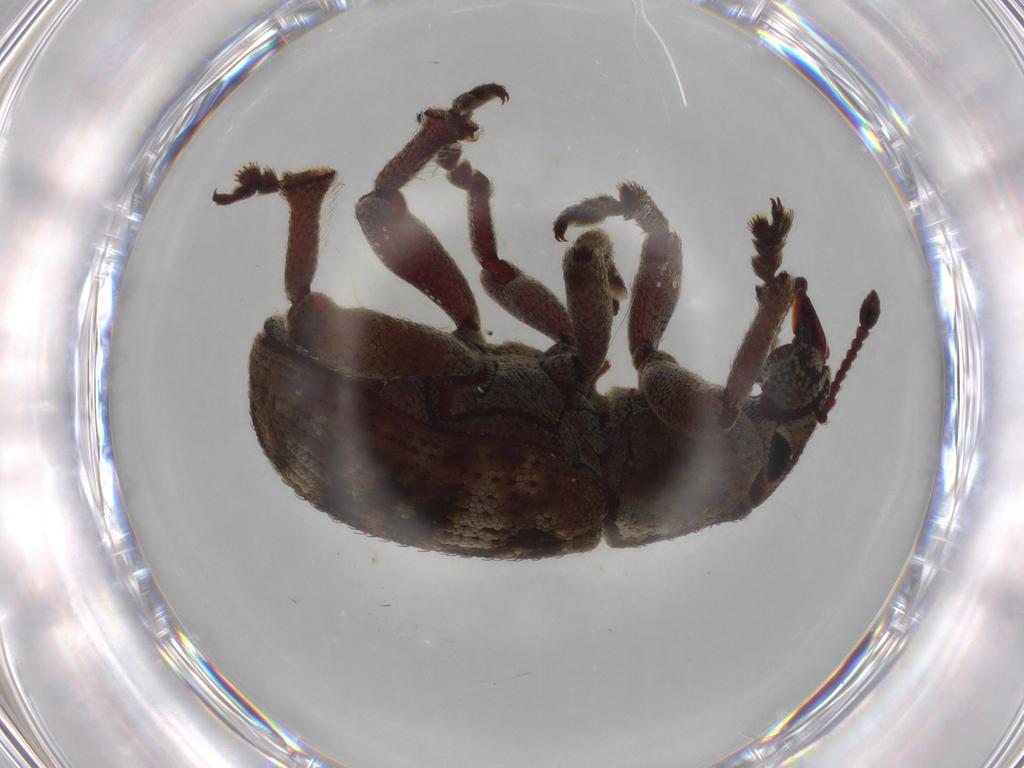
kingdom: Animalia
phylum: Arthropoda
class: Insecta
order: Coleoptera
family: Curculionidae
